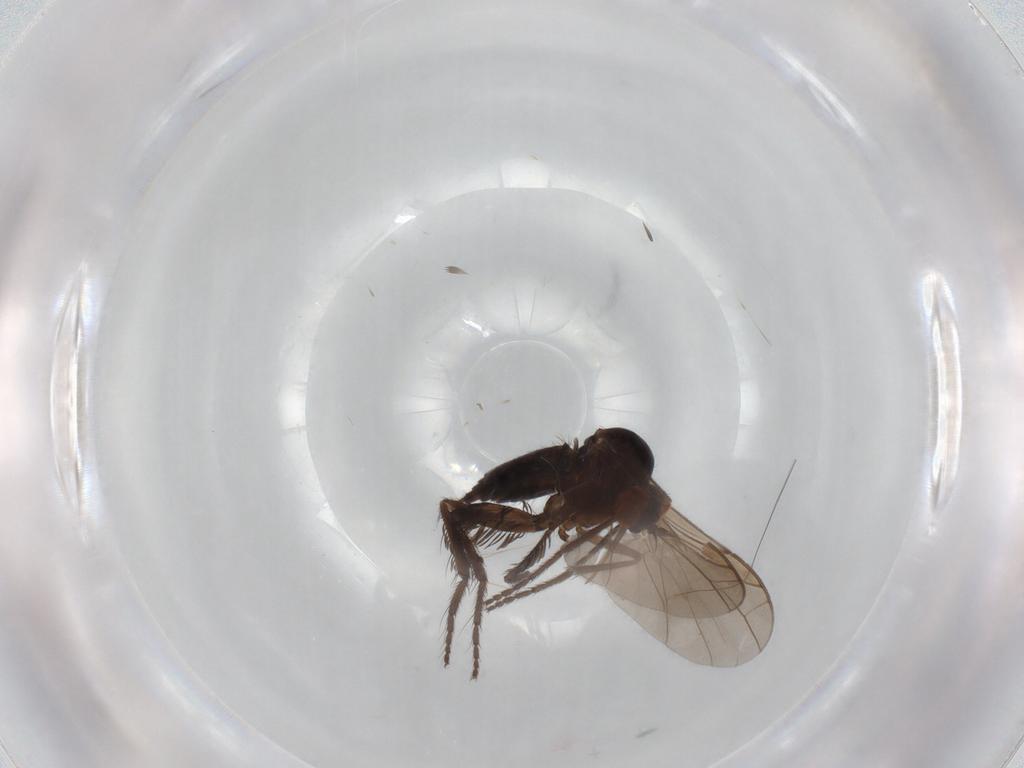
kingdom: Animalia
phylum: Arthropoda
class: Insecta
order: Diptera
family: Empididae
